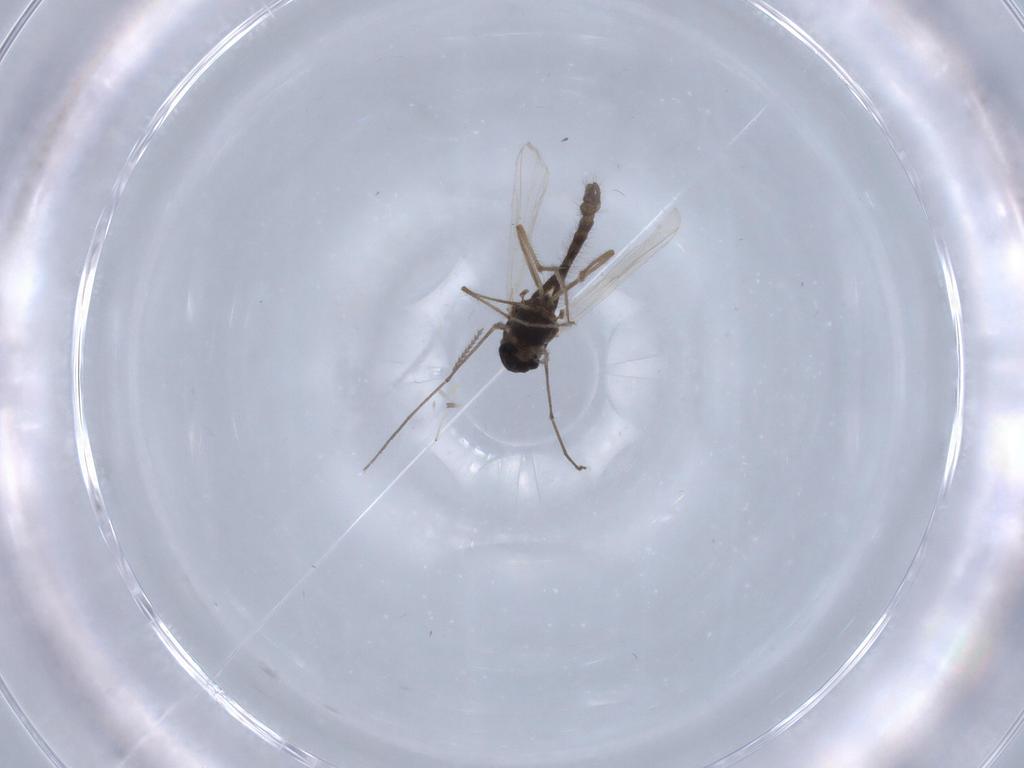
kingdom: Animalia
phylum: Arthropoda
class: Insecta
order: Diptera
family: Chironomidae
